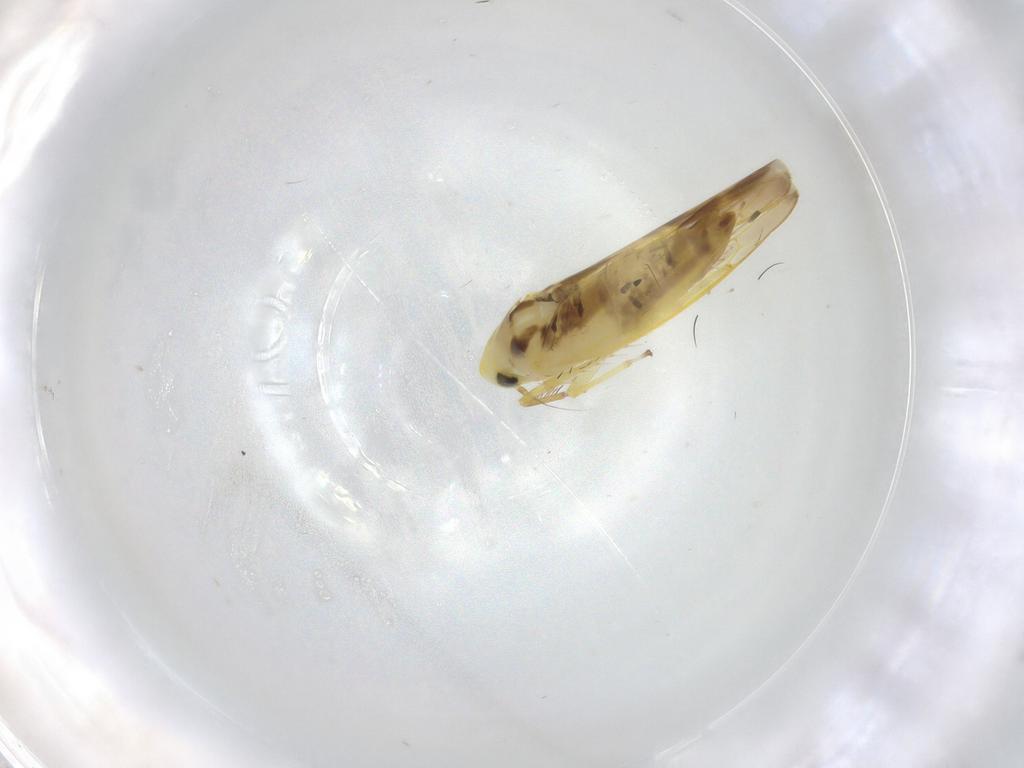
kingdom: Animalia
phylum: Arthropoda
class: Insecta
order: Hemiptera
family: Cicadellidae
